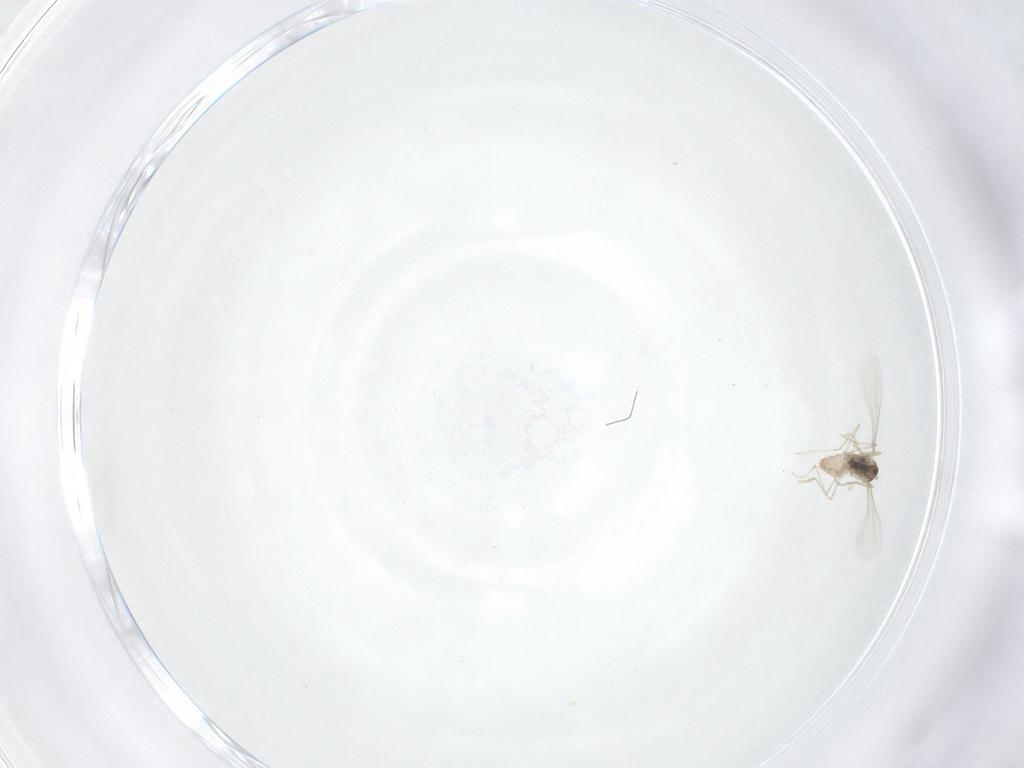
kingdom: Animalia
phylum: Arthropoda
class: Insecta
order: Diptera
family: Cecidomyiidae
